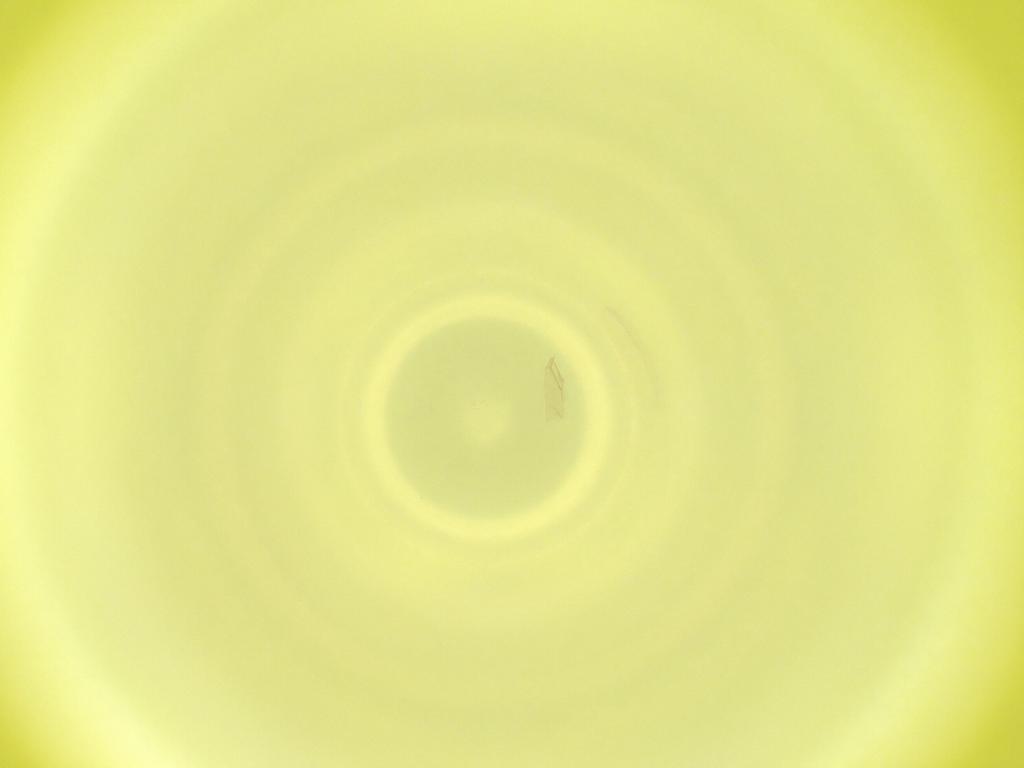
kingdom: Animalia
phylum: Arthropoda
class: Insecta
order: Diptera
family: Cecidomyiidae
